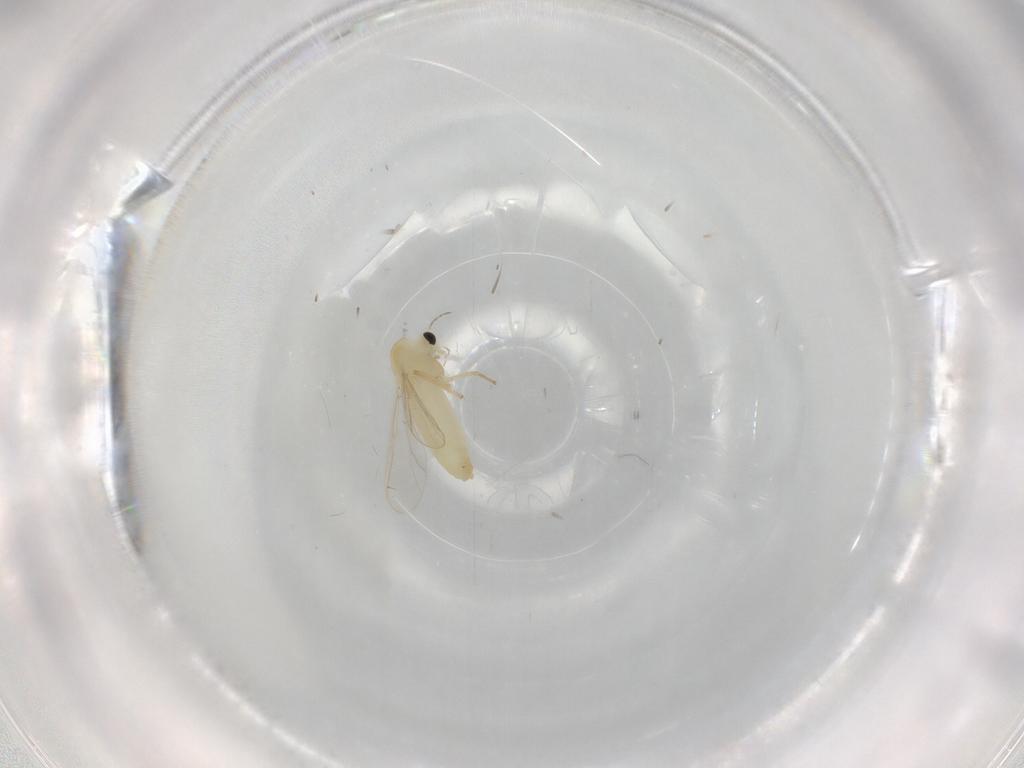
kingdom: Animalia
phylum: Arthropoda
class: Insecta
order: Diptera
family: Chironomidae
